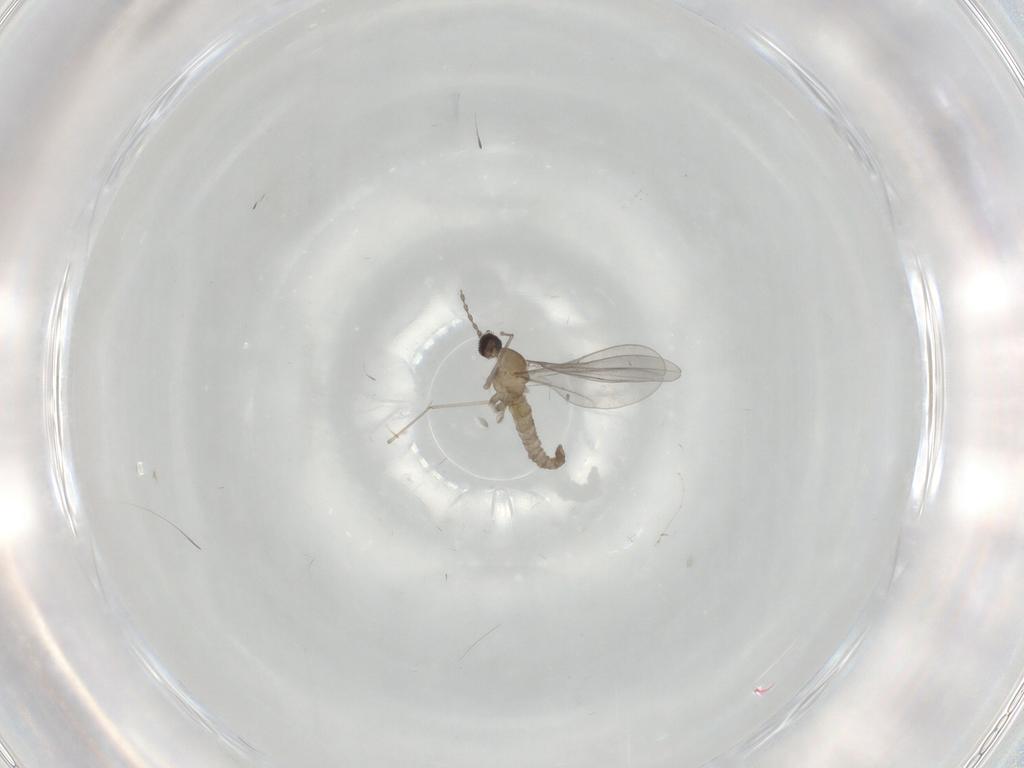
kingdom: Animalia
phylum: Arthropoda
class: Insecta
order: Diptera
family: Cecidomyiidae
